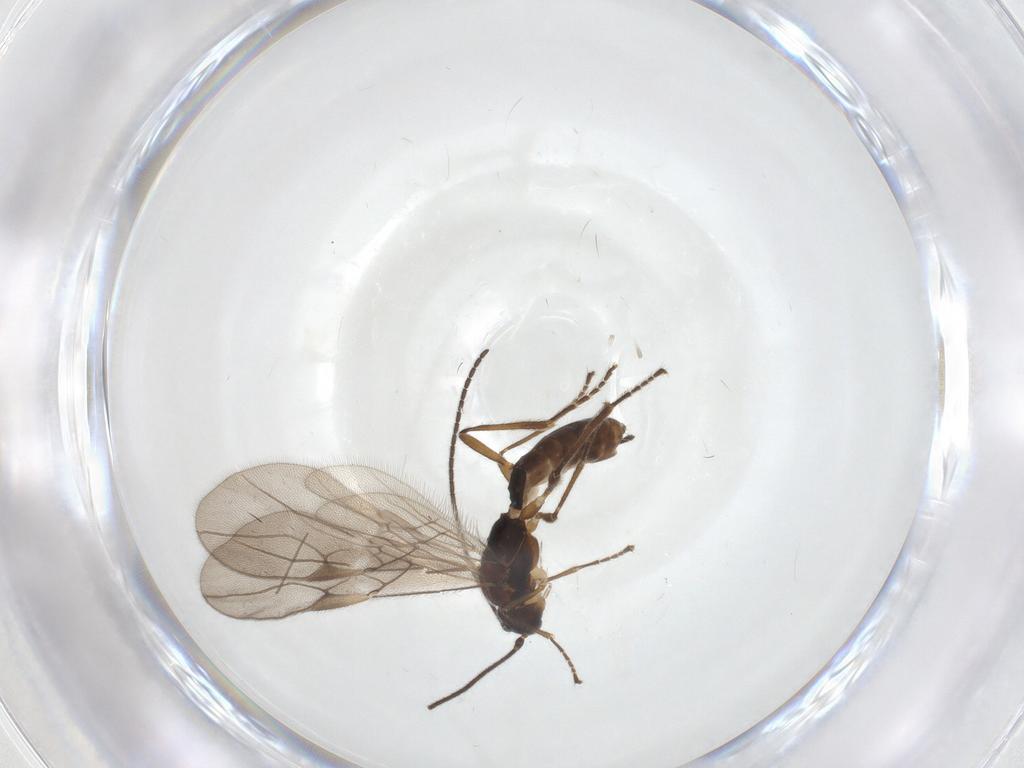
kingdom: Animalia
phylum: Arthropoda
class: Insecta
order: Hymenoptera
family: Braconidae
